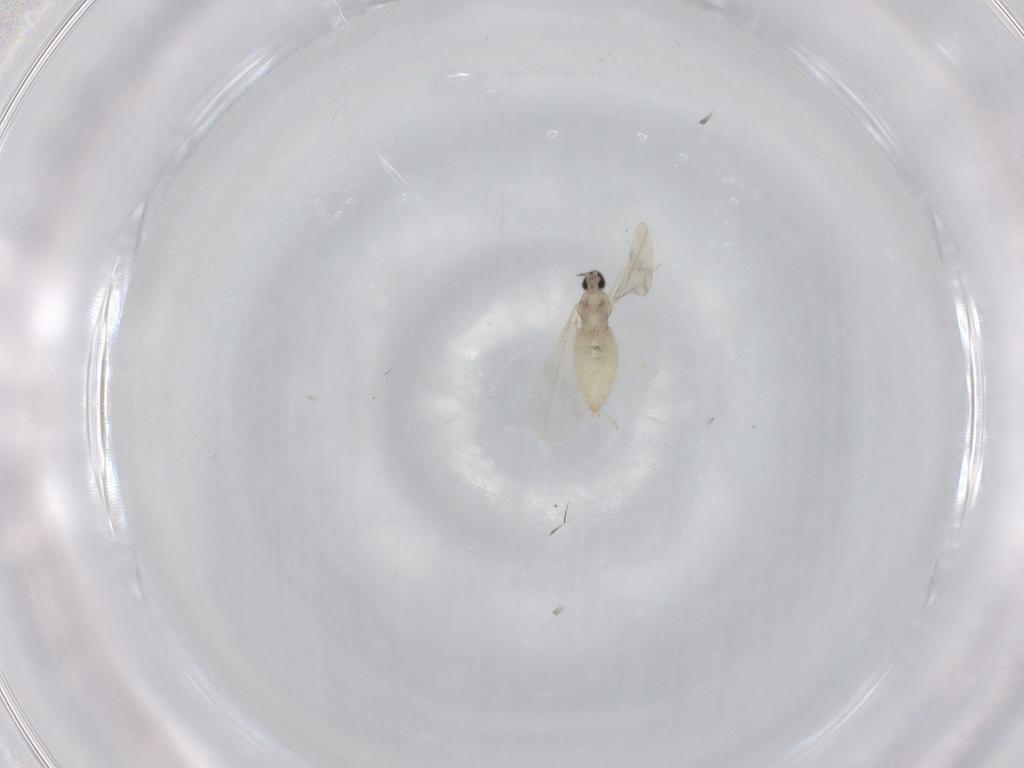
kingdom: Animalia
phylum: Arthropoda
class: Insecta
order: Diptera
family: Cecidomyiidae
